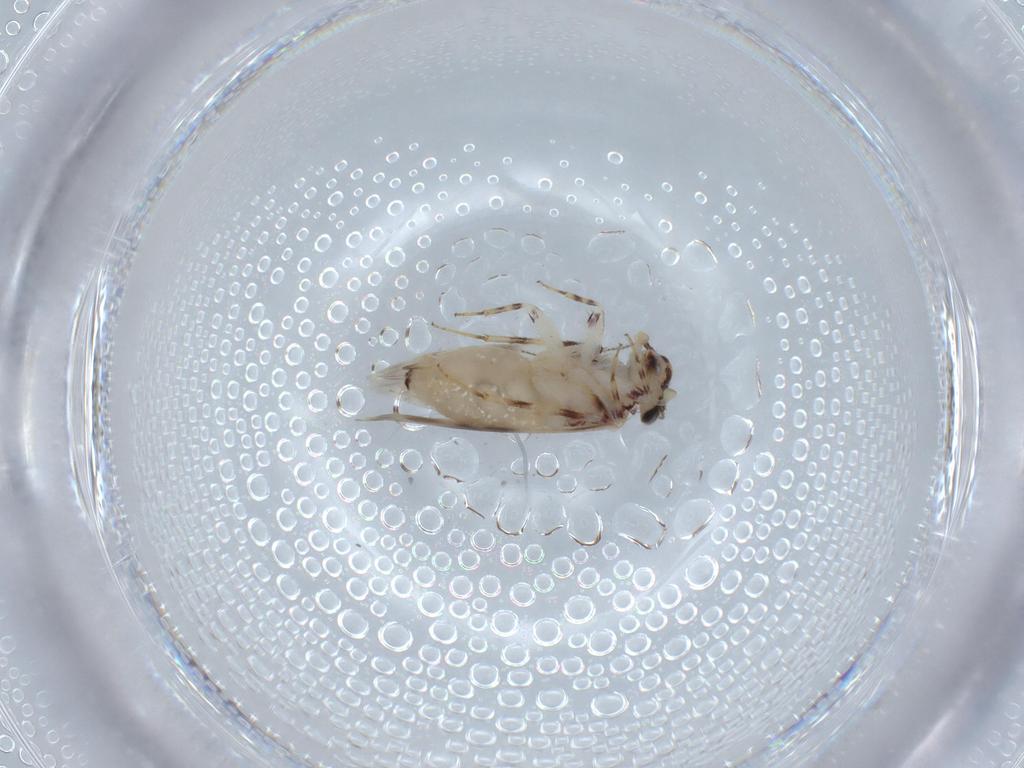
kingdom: Animalia
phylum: Arthropoda
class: Insecta
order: Psocodea
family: Lepidopsocidae
